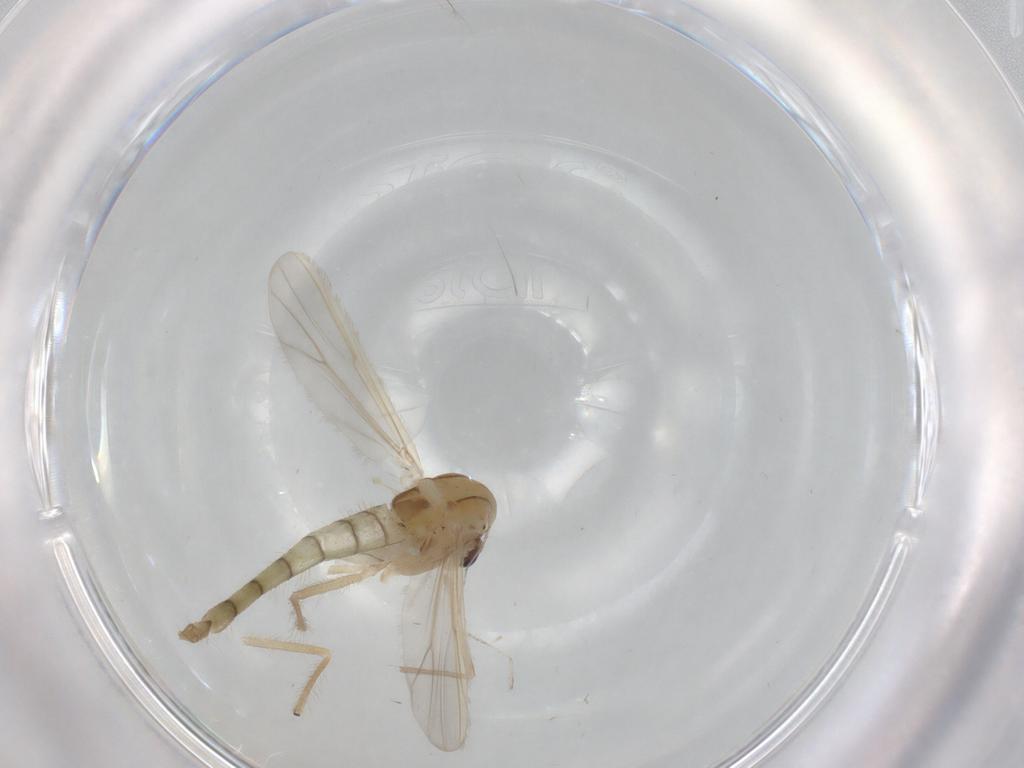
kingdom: Animalia
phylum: Arthropoda
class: Insecta
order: Diptera
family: Chironomidae
